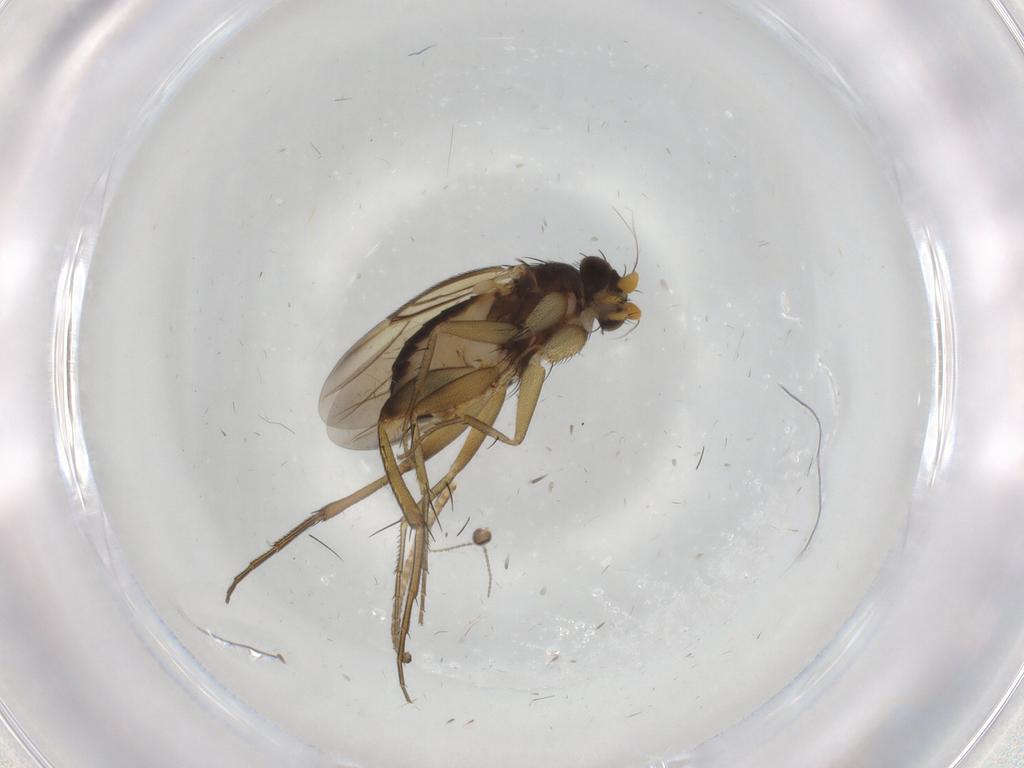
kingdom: Animalia
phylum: Arthropoda
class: Insecta
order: Diptera
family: Phoridae
